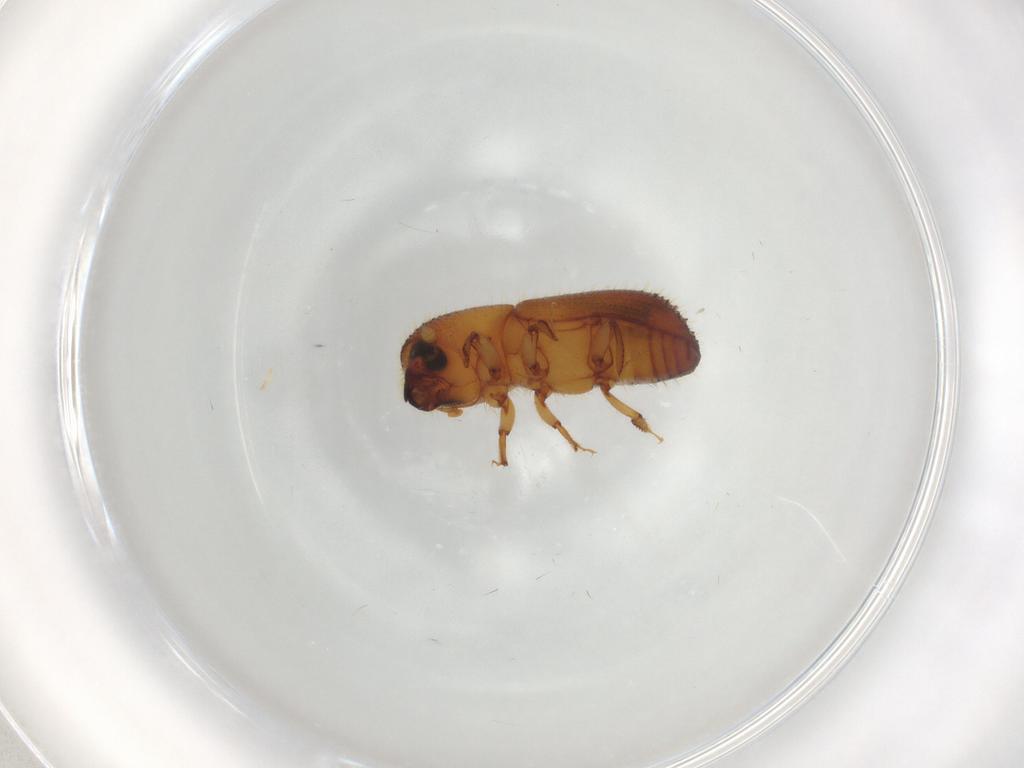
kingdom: Animalia
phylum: Arthropoda
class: Insecta
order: Coleoptera
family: Curculionidae
